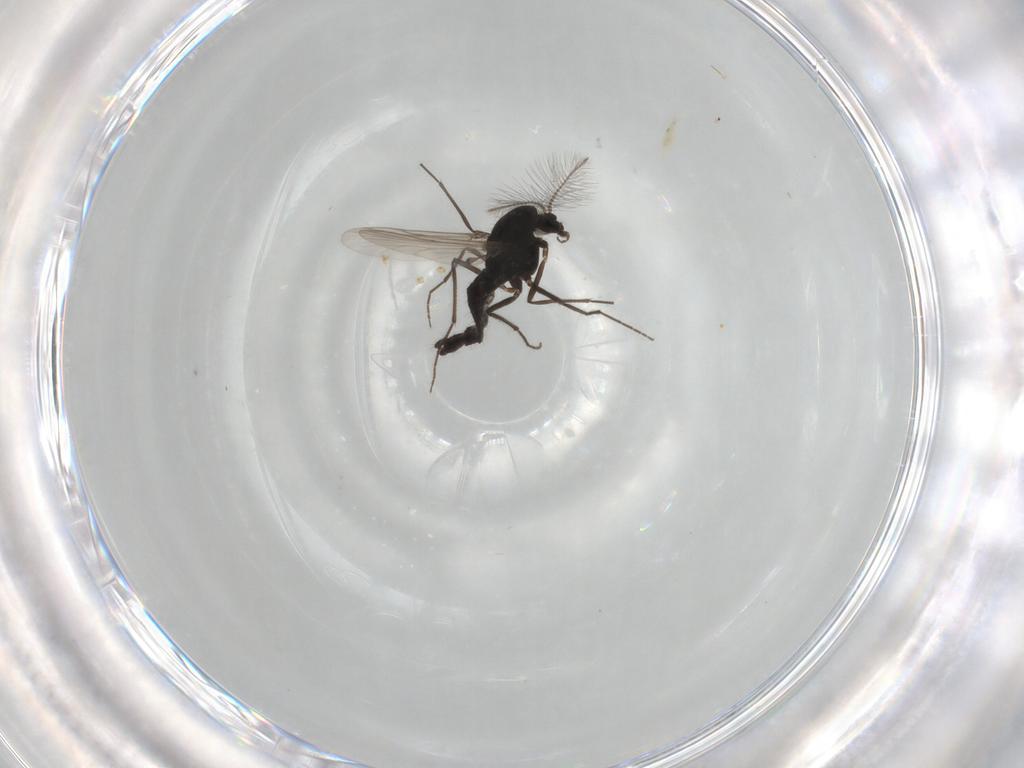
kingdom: Animalia
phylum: Arthropoda
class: Insecta
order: Diptera
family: Chironomidae
